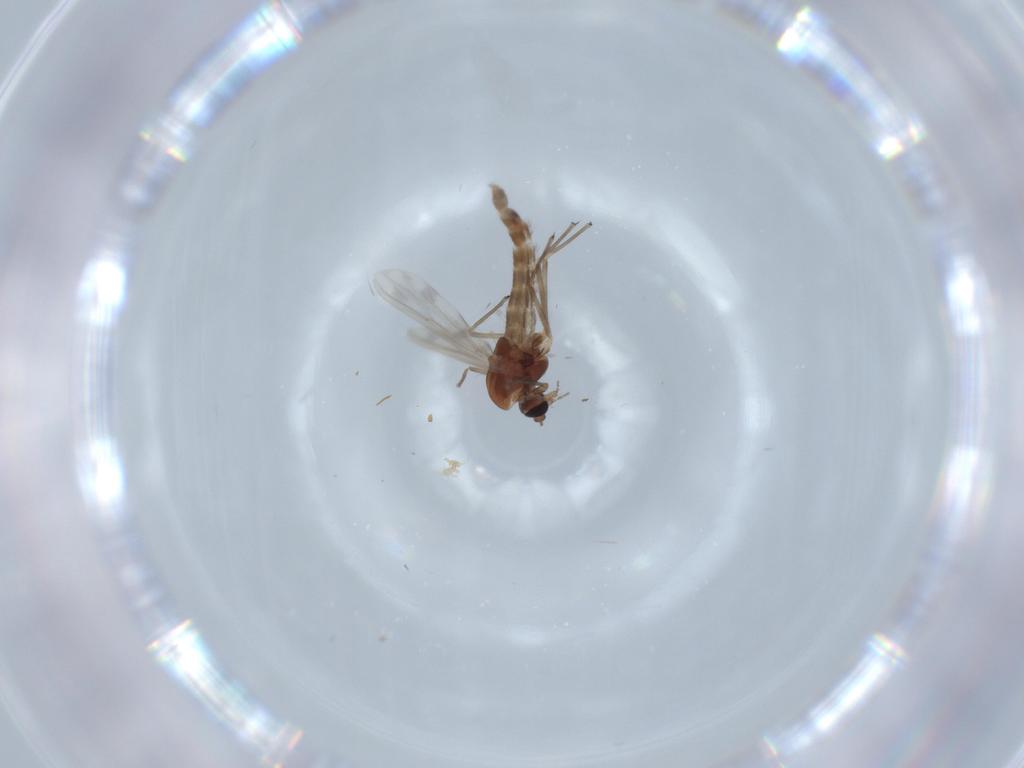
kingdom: Animalia
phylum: Arthropoda
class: Insecta
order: Diptera
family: Chironomidae
